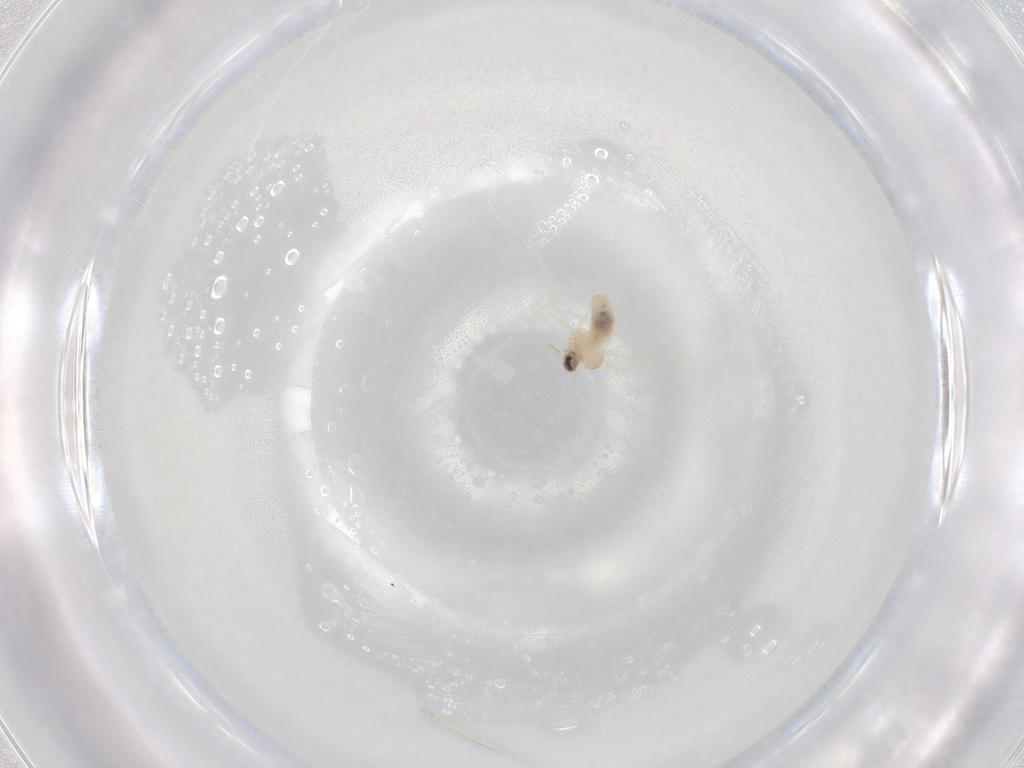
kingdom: Animalia
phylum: Arthropoda
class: Insecta
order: Diptera
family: Cecidomyiidae
